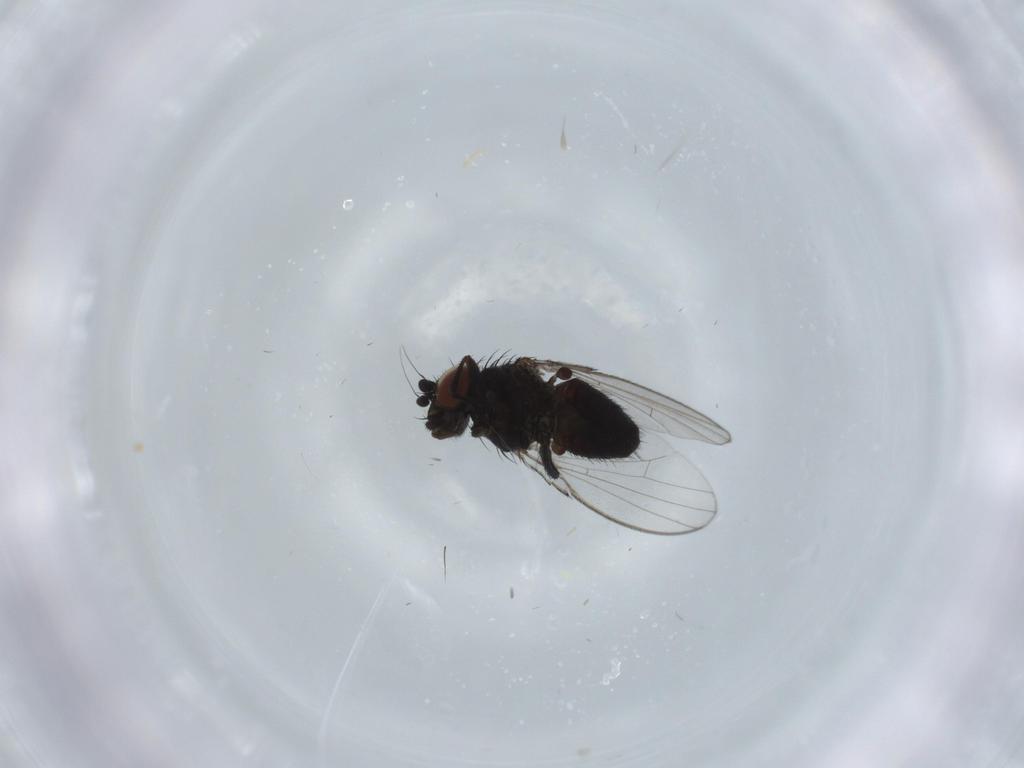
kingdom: Animalia
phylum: Arthropoda
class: Insecta
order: Diptera
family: Milichiidae
